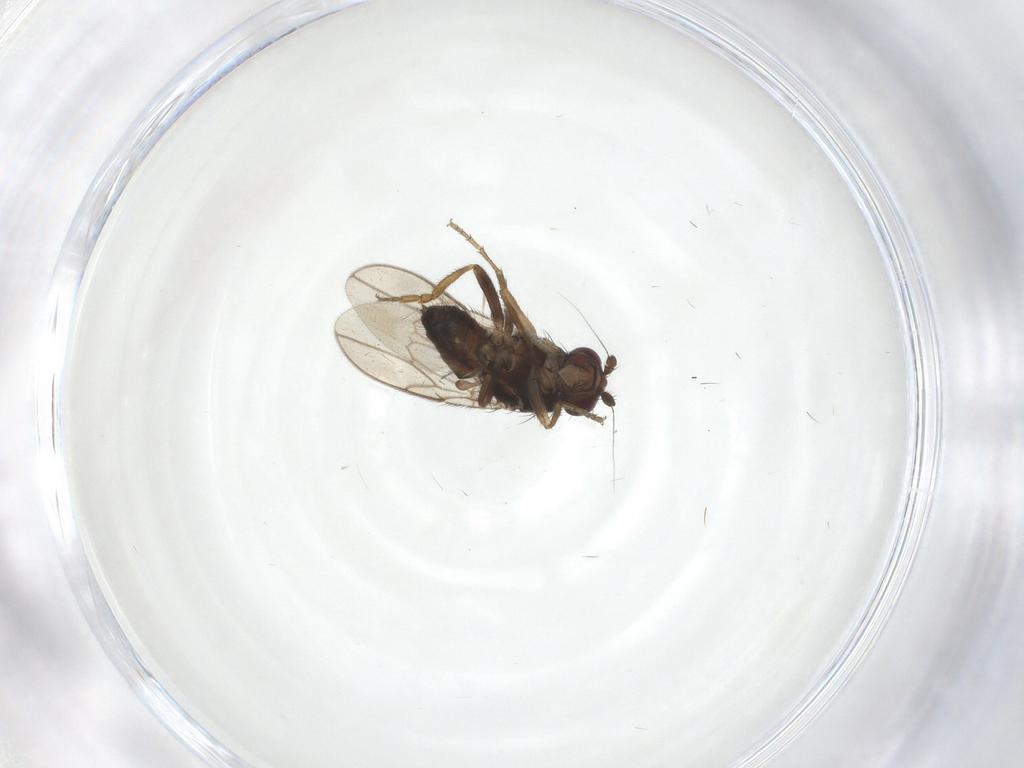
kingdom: Animalia
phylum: Arthropoda
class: Insecta
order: Diptera
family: Sphaeroceridae
